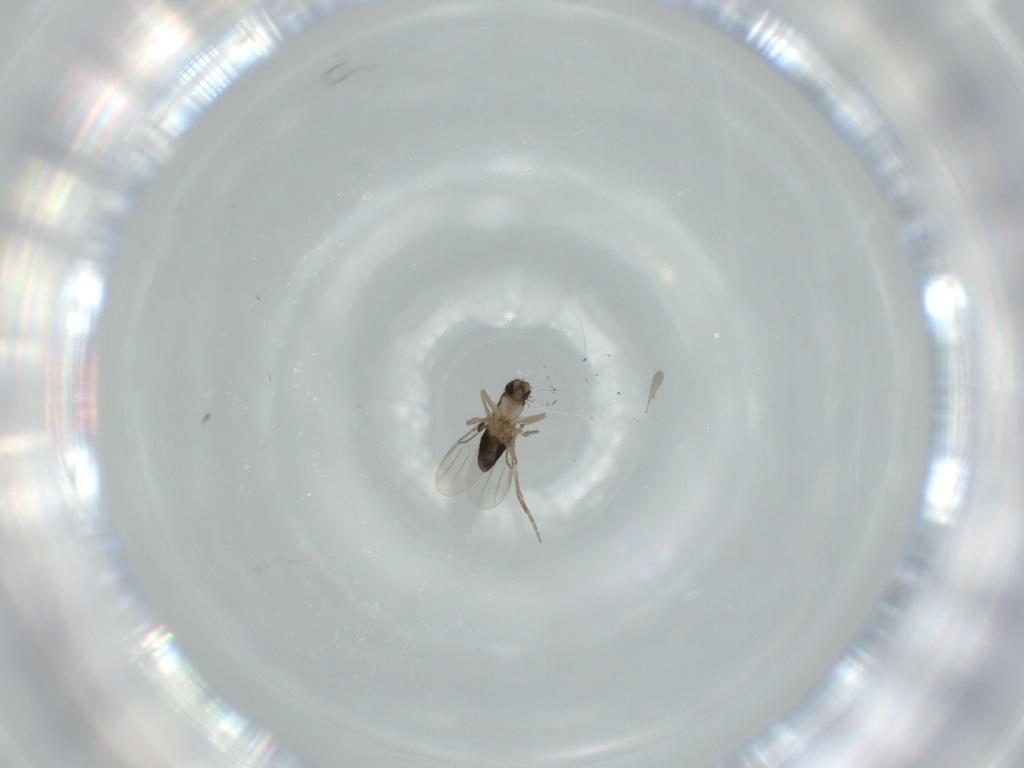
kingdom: Animalia
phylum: Arthropoda
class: Insecta
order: Diptera
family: Phoridae
